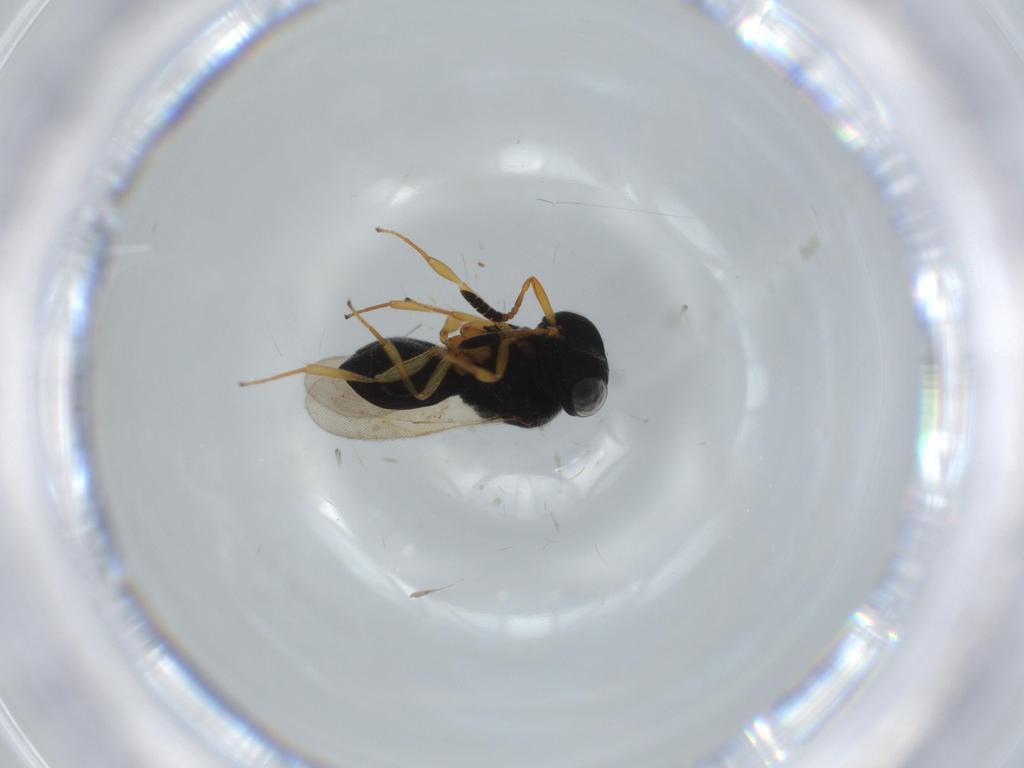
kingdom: Animalia
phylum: Arthropoda
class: Insecta
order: Hymenoptera
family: Scelionidae
